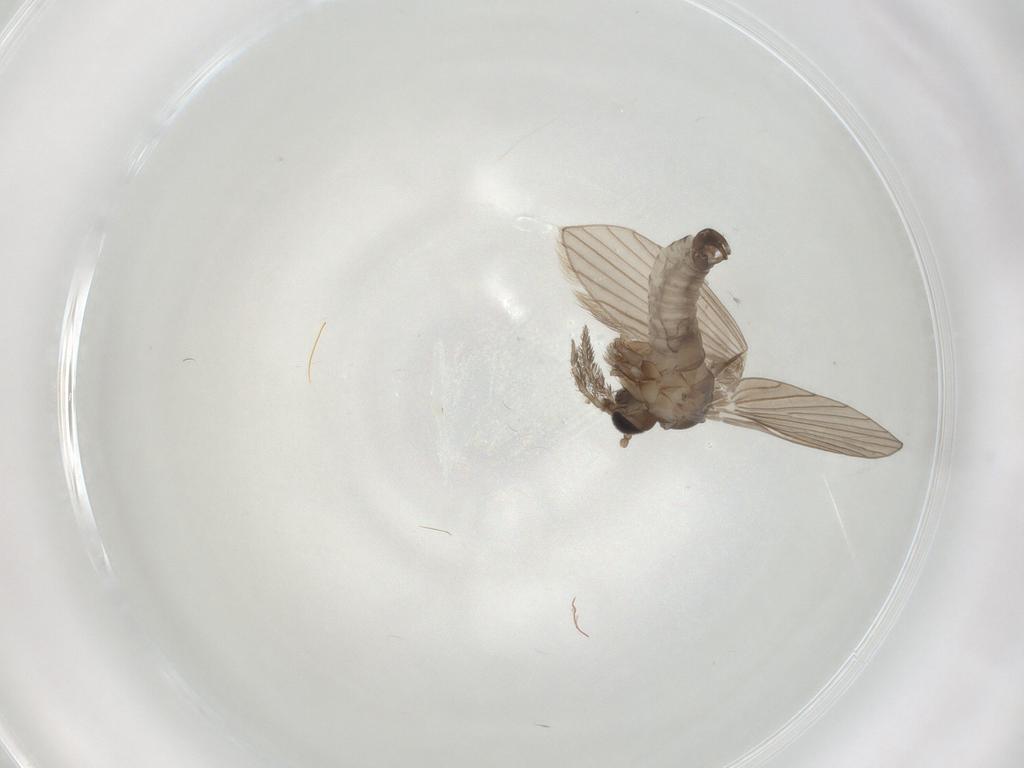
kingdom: Animalia
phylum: Arthropoda
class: Insecta
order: Diptera
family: Psychodidae
